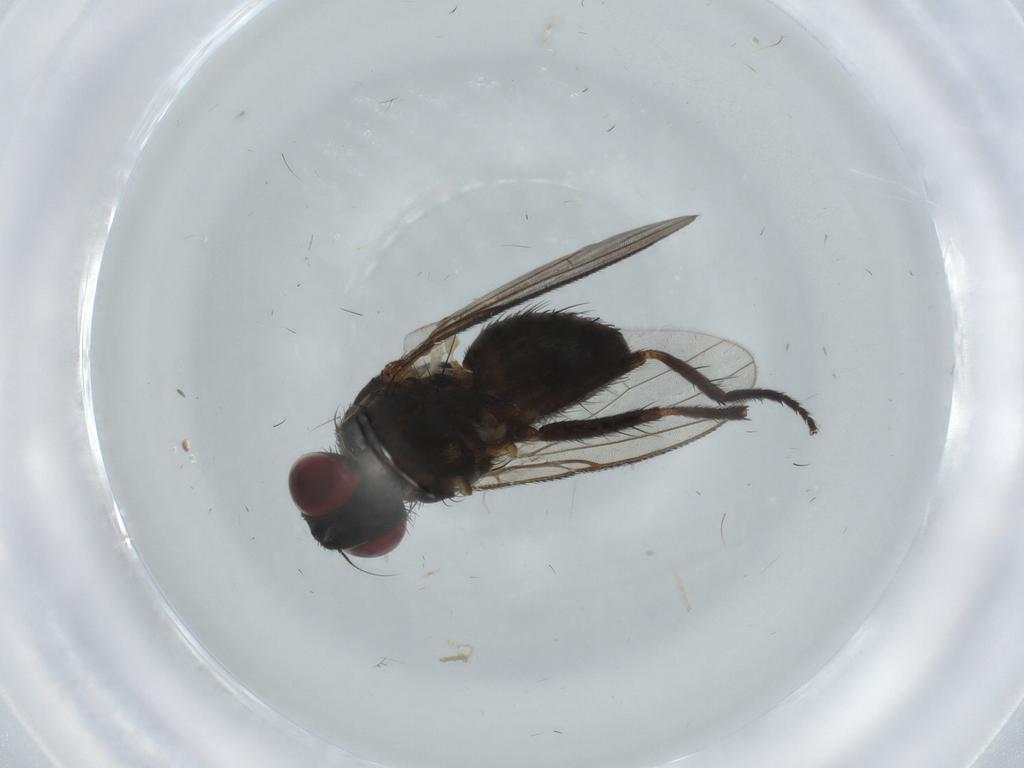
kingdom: Animalia
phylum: Arthropoda
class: Insecta
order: Diptera
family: Muscidae
